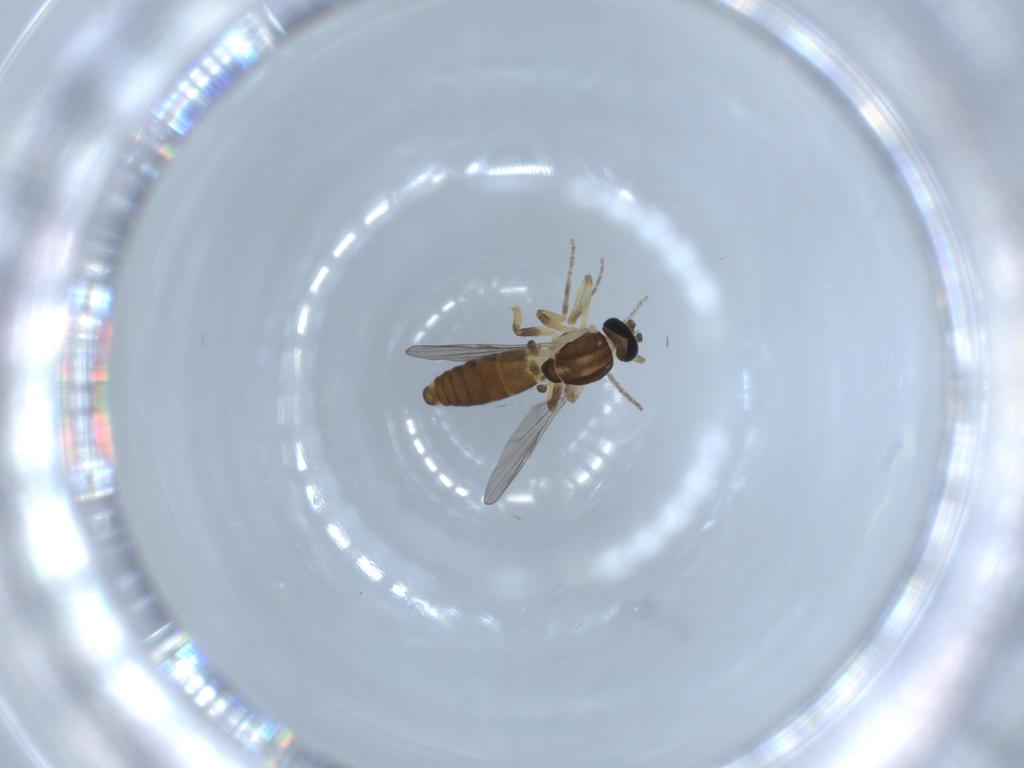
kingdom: Animalia
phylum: Arthropoda
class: Insecta
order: Diptera
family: Ceratopogonidae
